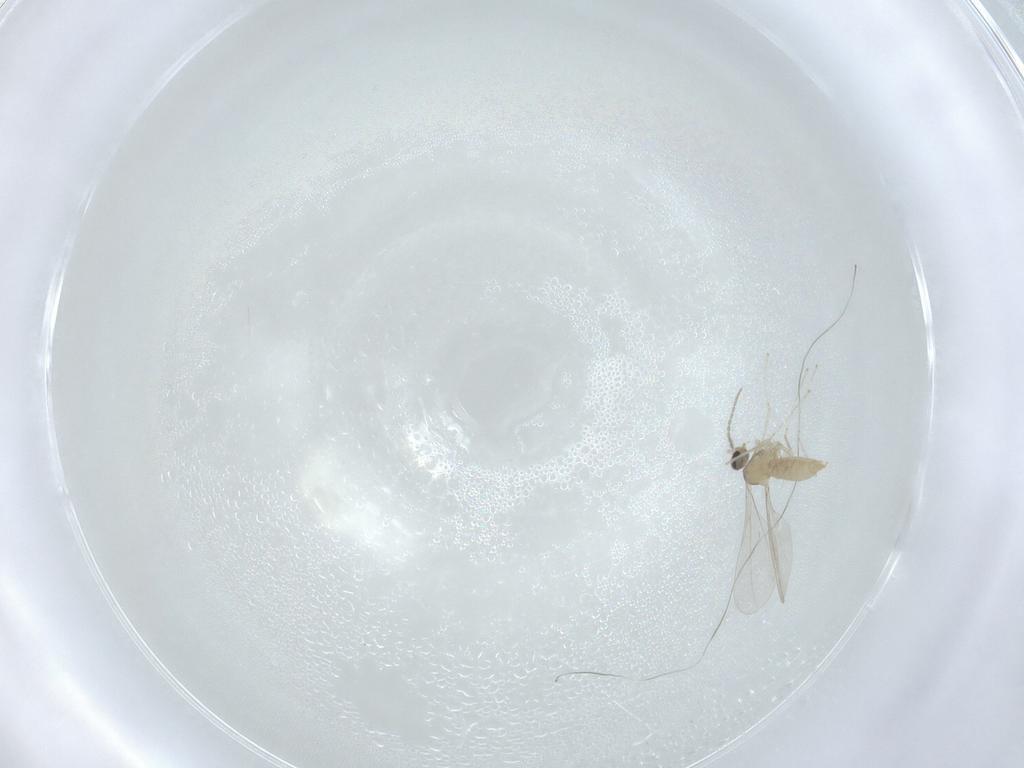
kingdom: Animalia
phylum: Arthropoda
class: Insecta
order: Diptera
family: Cecidomyiidae
